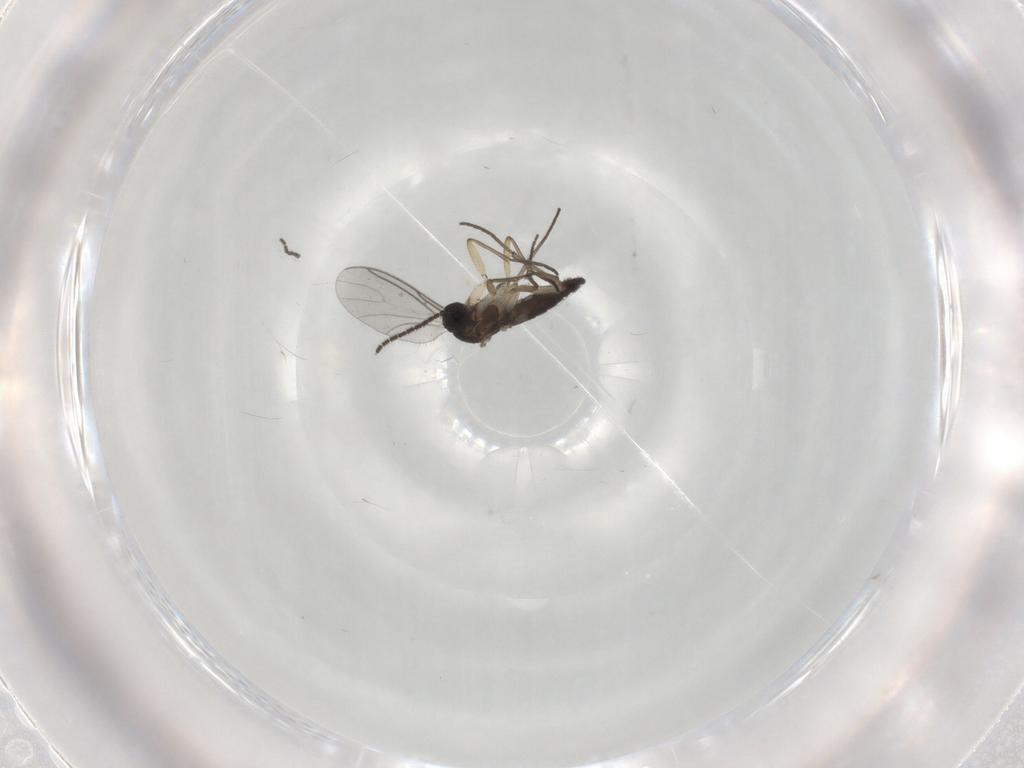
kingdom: Animalia
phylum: Arthropoda
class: Insecta
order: Diptera
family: Sciaridae
